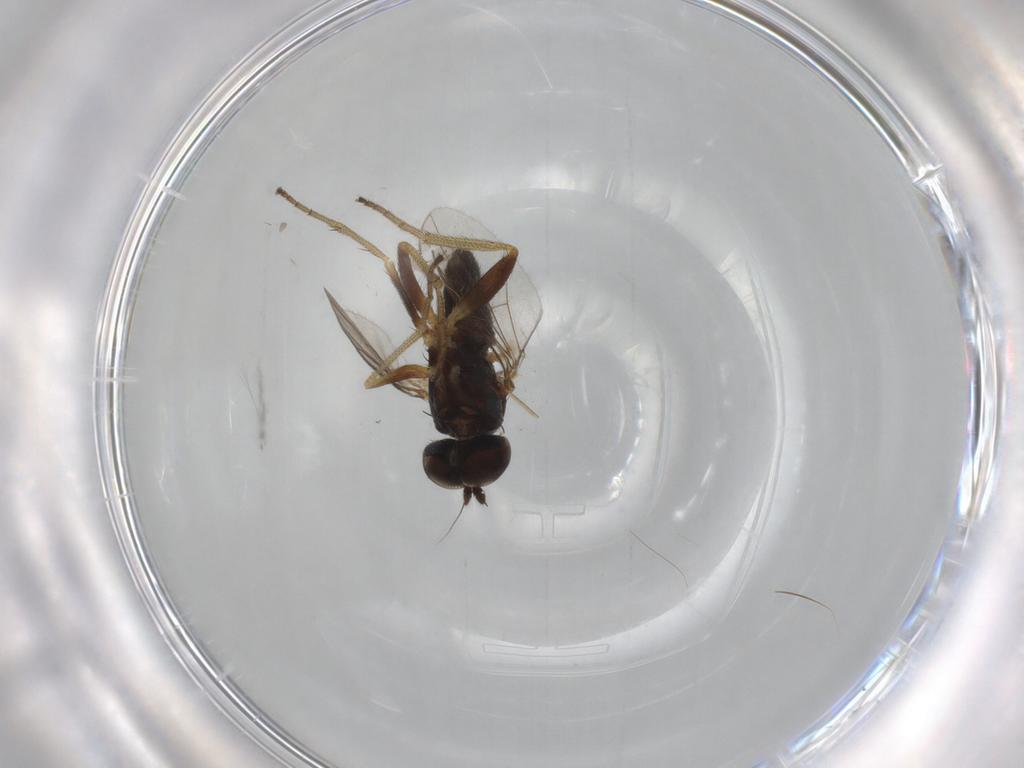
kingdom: Animalia
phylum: Arthropoda
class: Insecta
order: Diptera
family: Dolichopodidae
